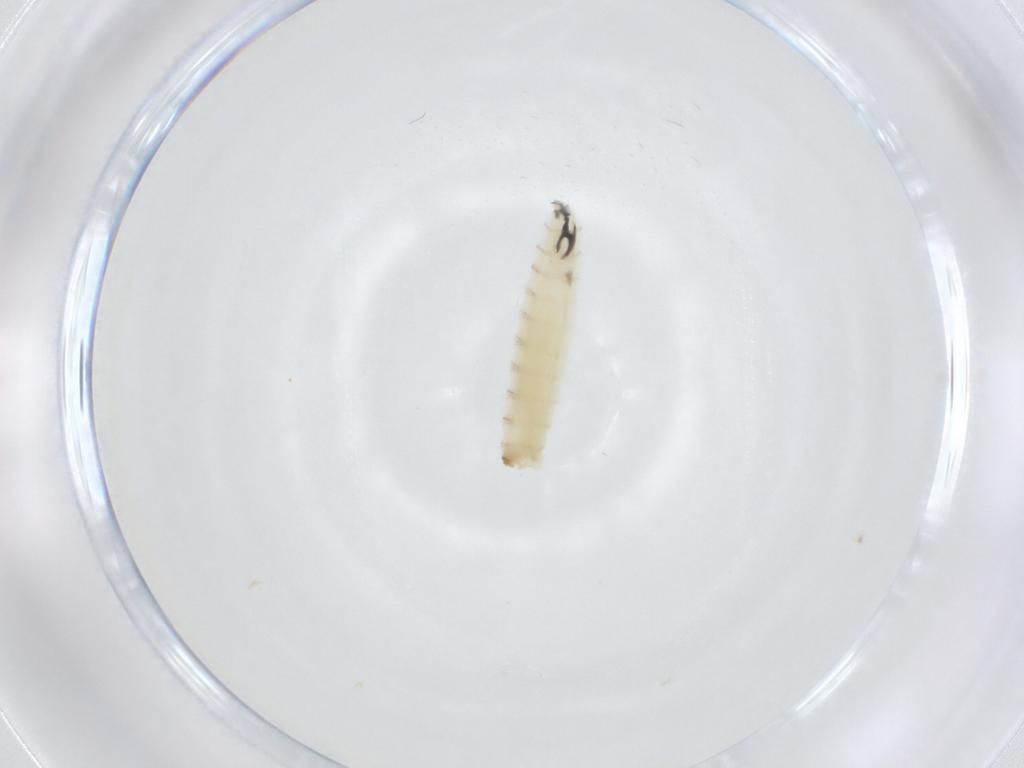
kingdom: Animalia
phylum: Arthropoda
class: Insecta
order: Diptera
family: Sarcophagidae
